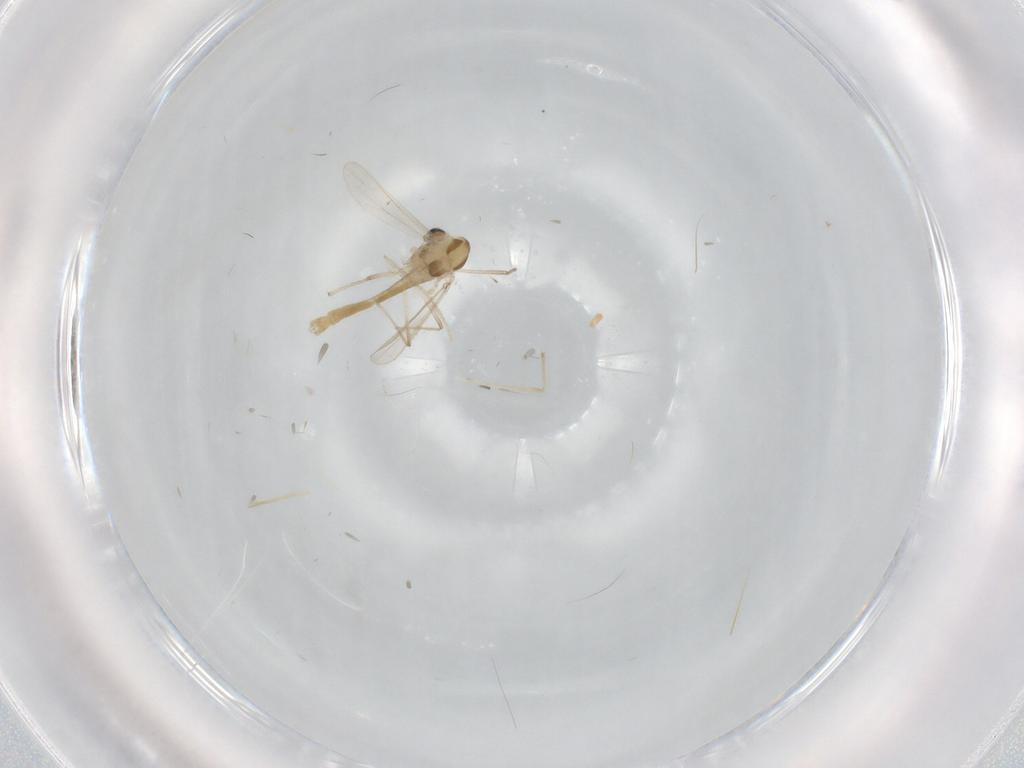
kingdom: Animalia
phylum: Arthropoda
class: Insecta
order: Diptera
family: Chironomidae
